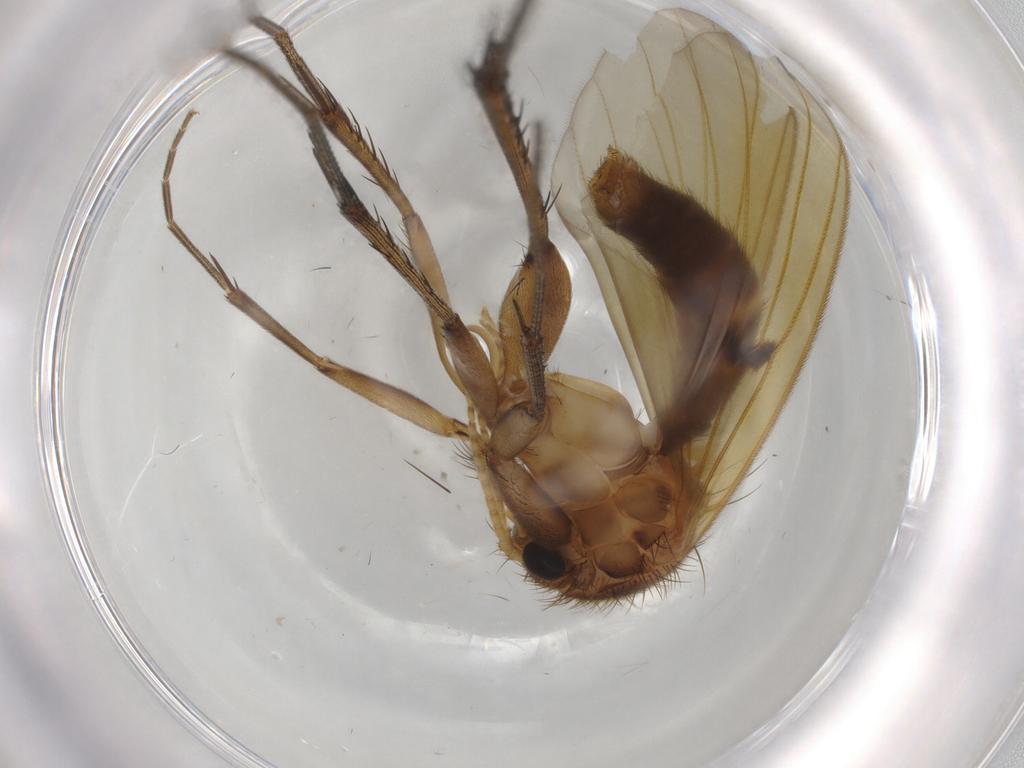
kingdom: Animalia
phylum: Arthropoda
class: Insecta
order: Diptera
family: Mycetophilidae
